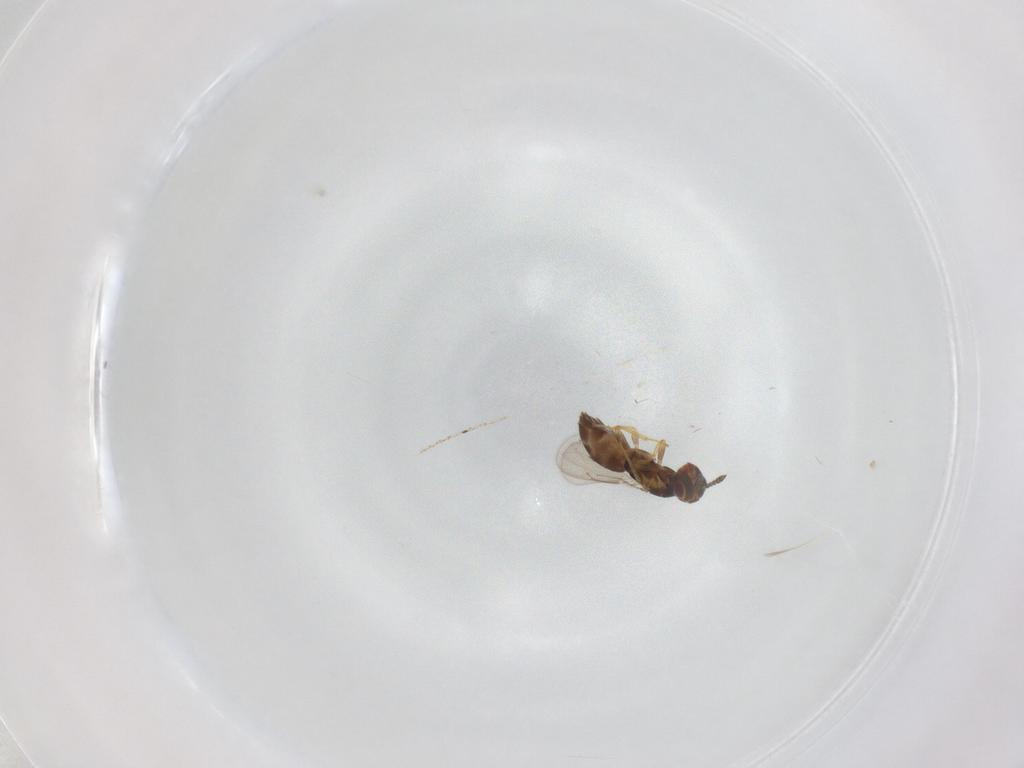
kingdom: Animalia
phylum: Arthropoda
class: Insecta
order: Hymenoptera
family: Eulophidae
